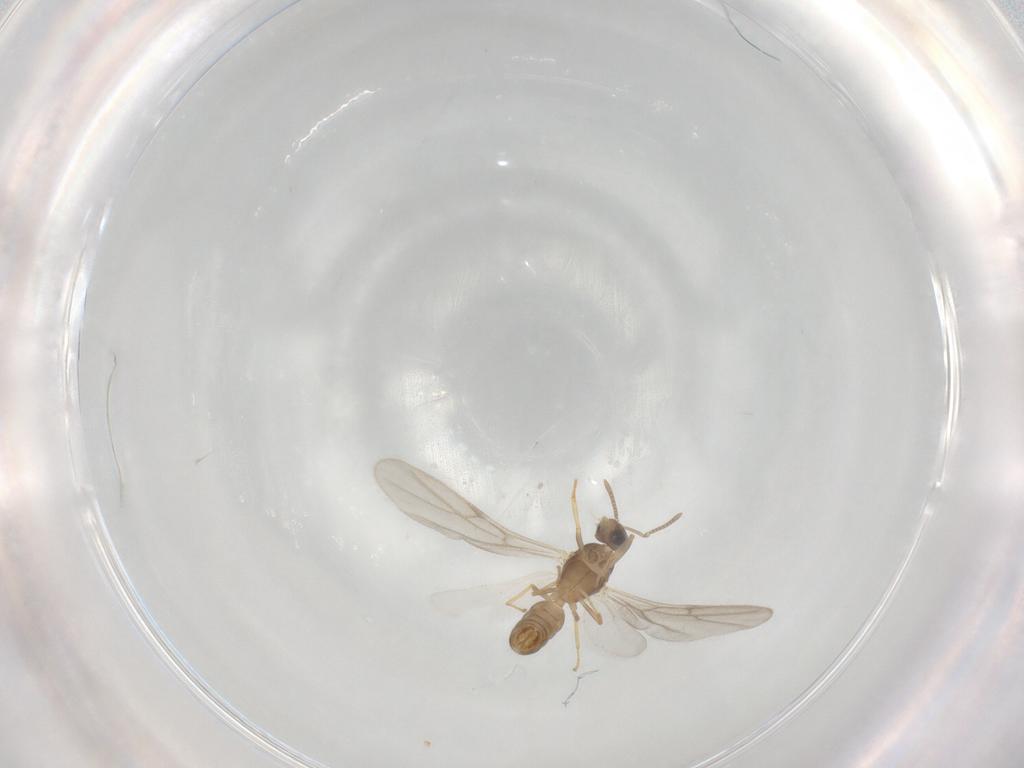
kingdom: Animalia
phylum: Arthropoda
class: Insecta
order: Hymenoptera
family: Formicidae
